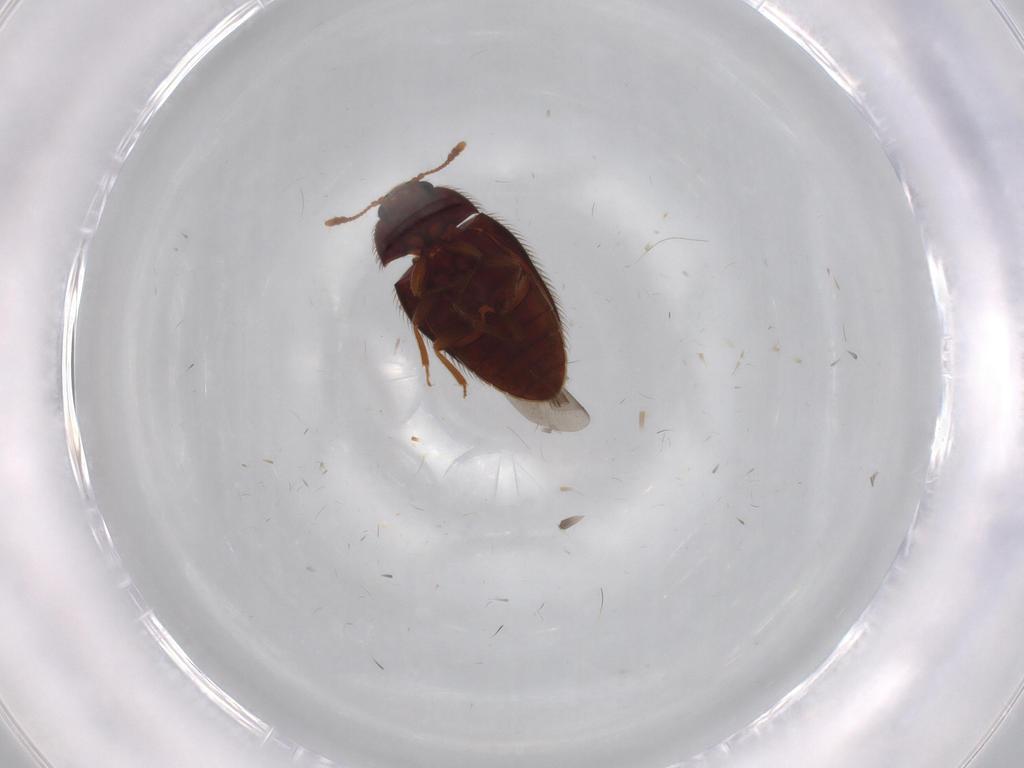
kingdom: Animalia
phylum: Arthropoda
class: Insecta
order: Coleoptera
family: Biphyllidae
